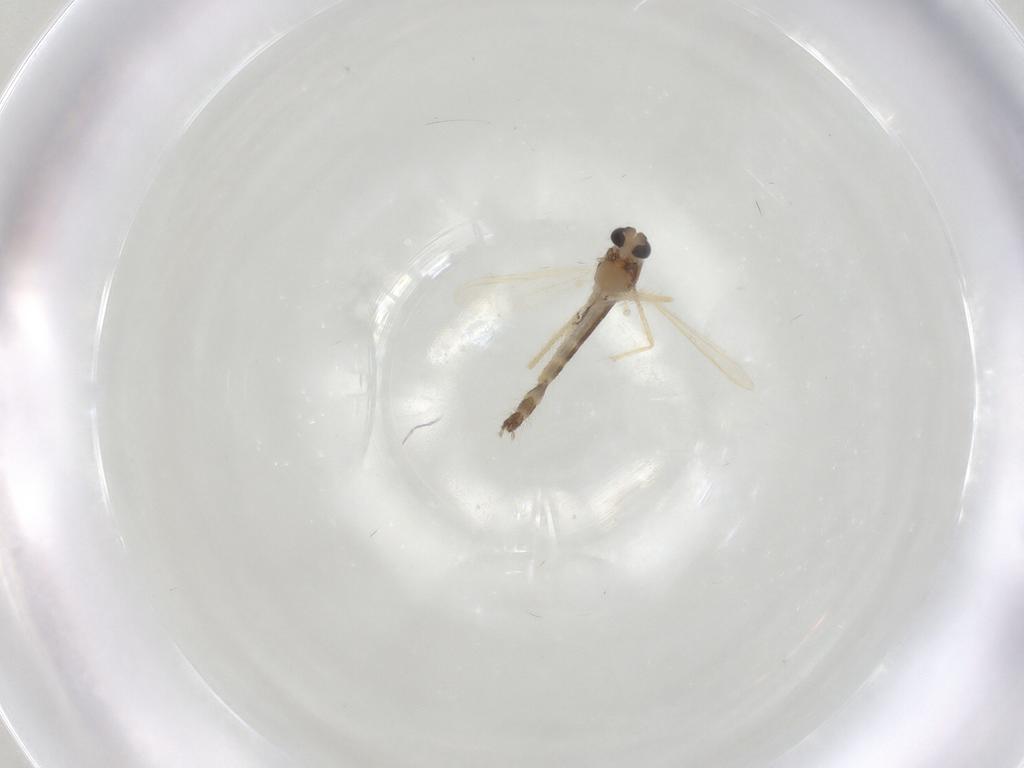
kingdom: Animalia
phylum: Arthropoda
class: Insecta
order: Diptera
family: Chironomidae
